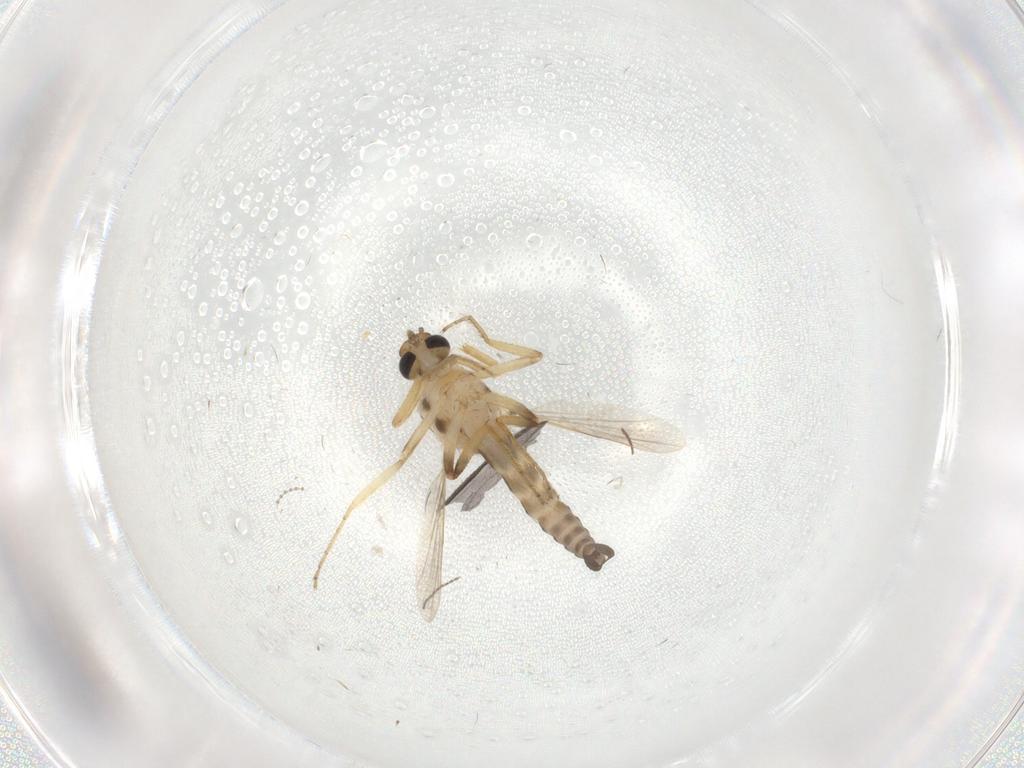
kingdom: Animalia
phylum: Arthropoda
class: Insecta
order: Diptera
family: Ceratopogonidae
